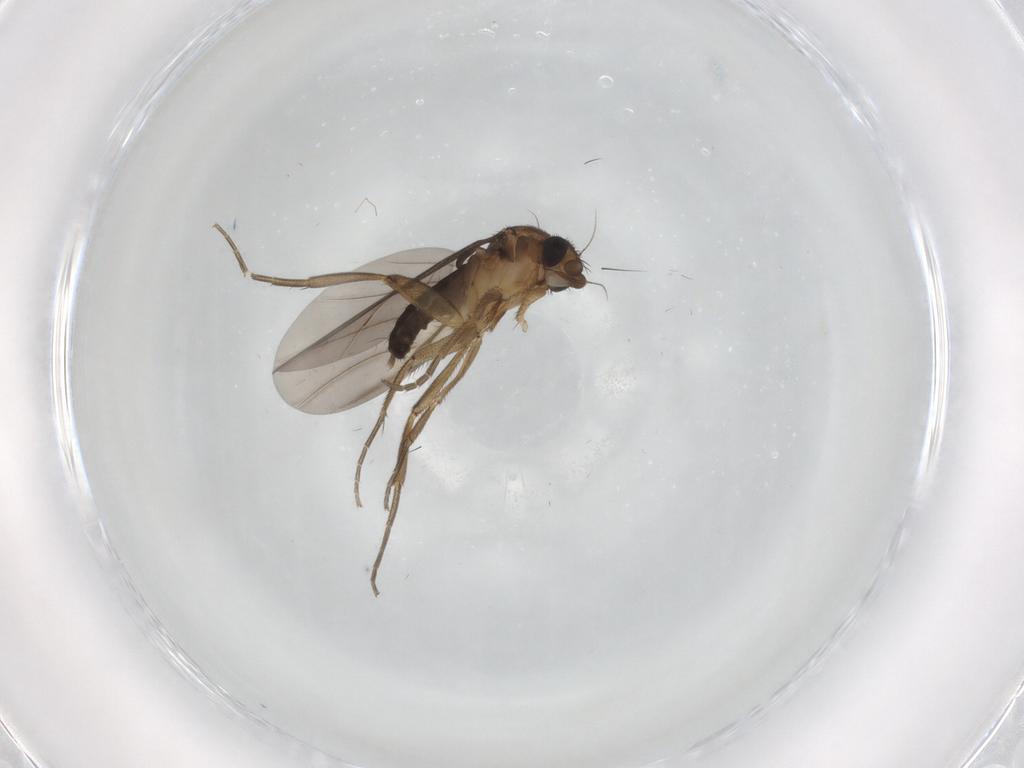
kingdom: Animalia
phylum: Arthropoda
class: Insecta
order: Diptera
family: Phoridae
